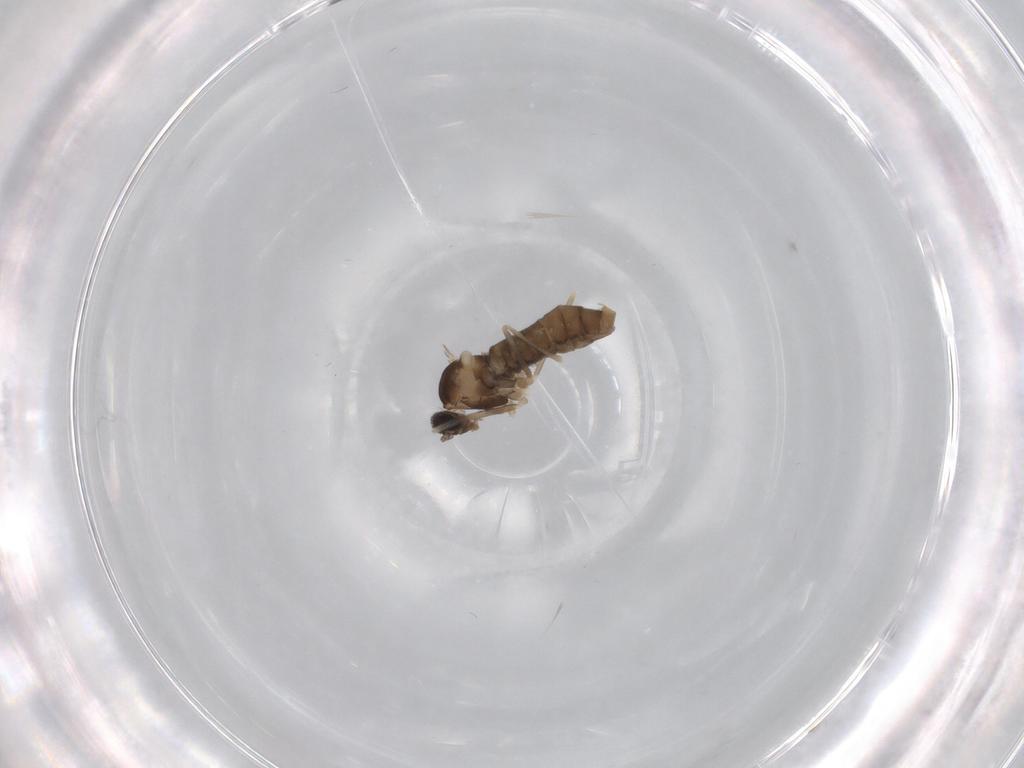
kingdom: Animalia
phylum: Arthropoda
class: Insecta
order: Diptera
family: Cecidomyiidae
